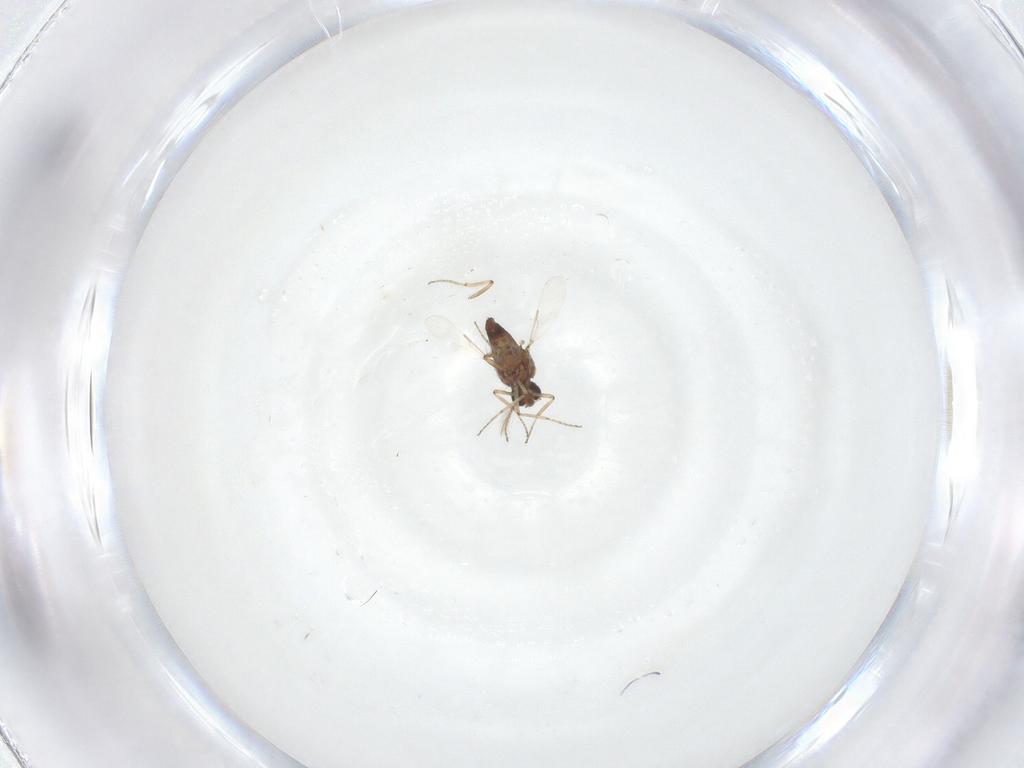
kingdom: Animalia
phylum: Arthropoda
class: Insecta
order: Diptera
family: Ceratopogonidae
